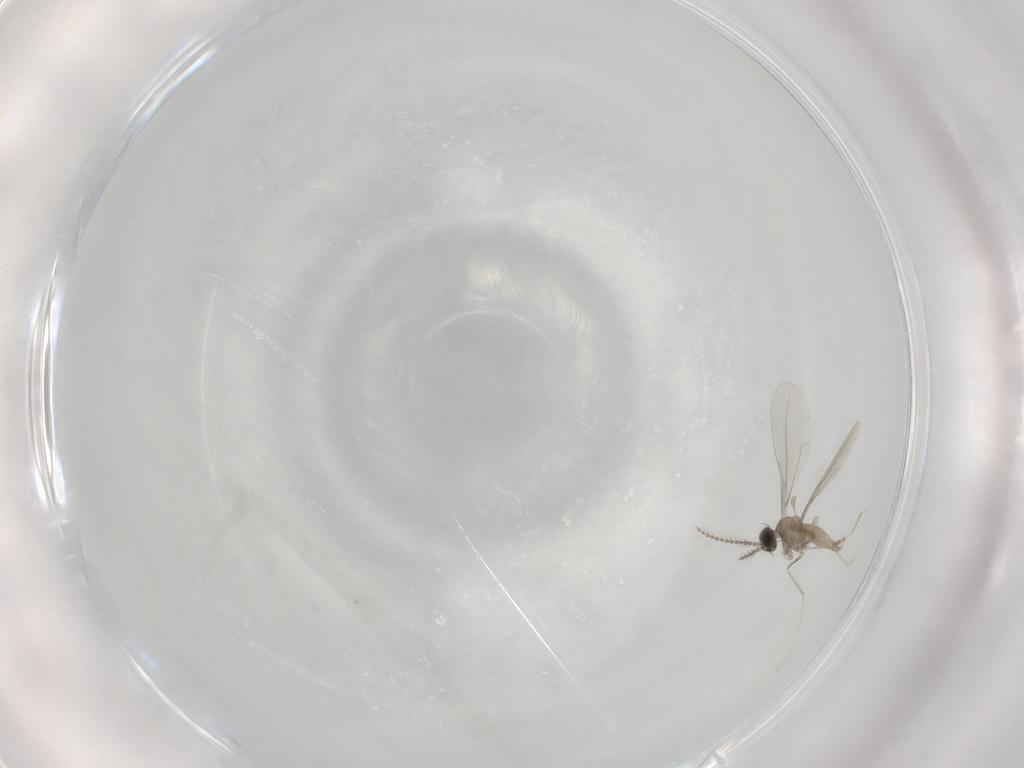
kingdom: Animalia
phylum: Arthropoda
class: Insecta
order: Diptera
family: Cecidomyiidae
